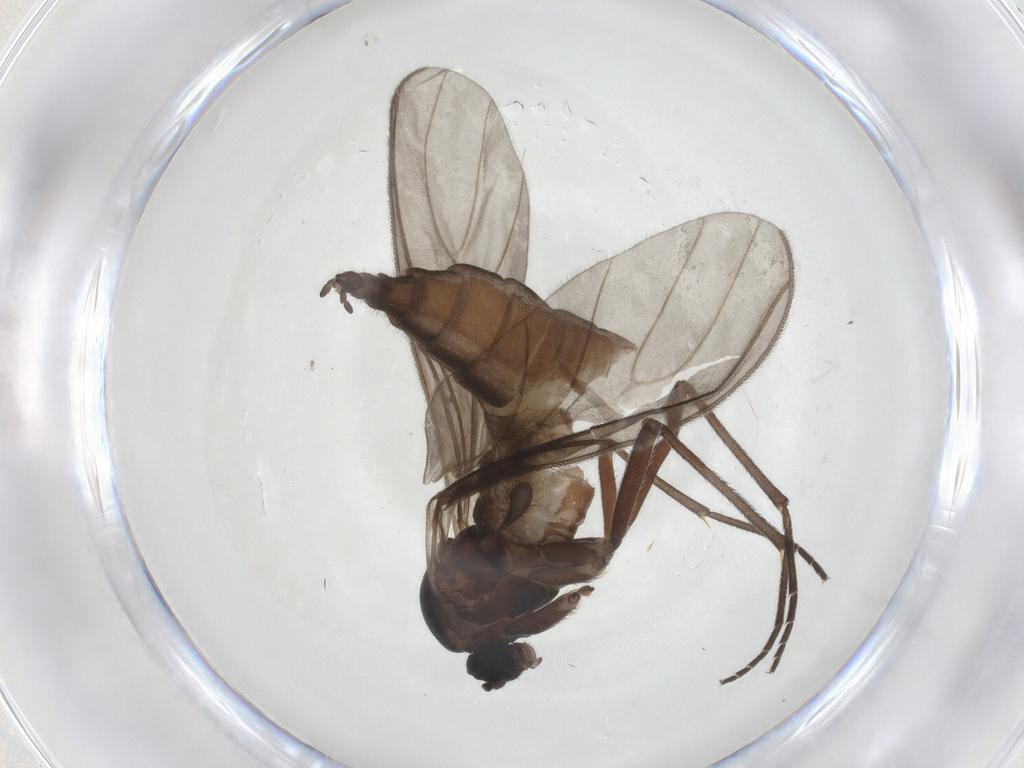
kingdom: Animalia
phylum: Arthropoda
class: Insecta
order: Diptera
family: Sciaridae
